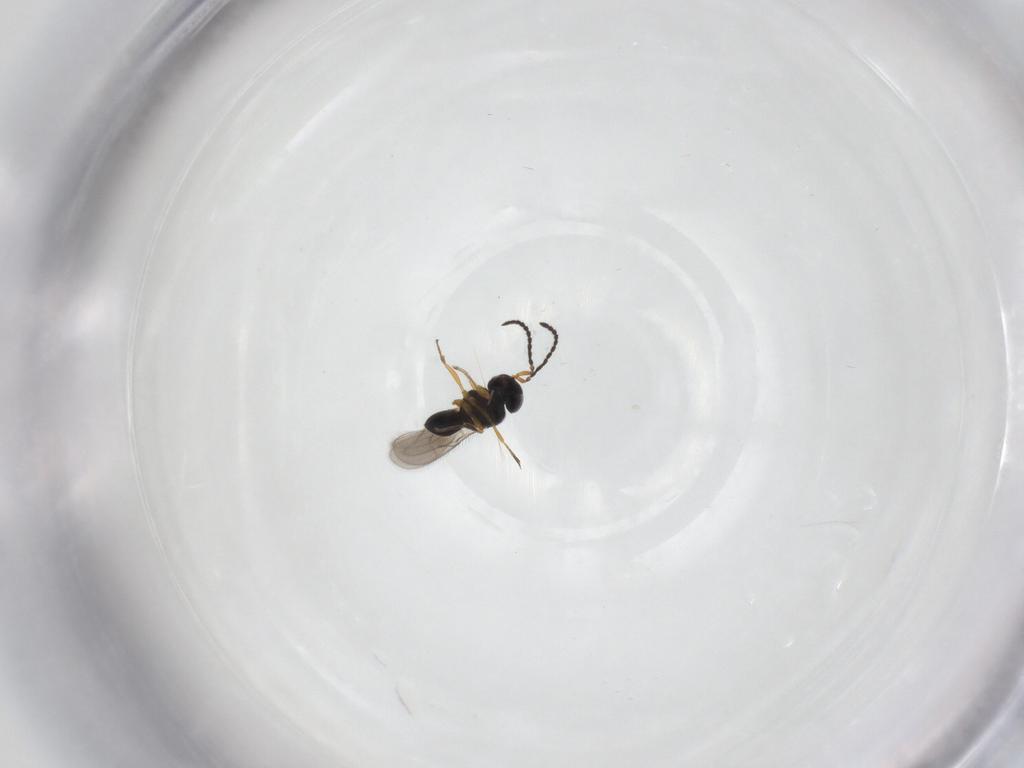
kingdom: Animalia
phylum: Arthropoda
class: Insecta
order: Hymenoptera
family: Scelionidae
